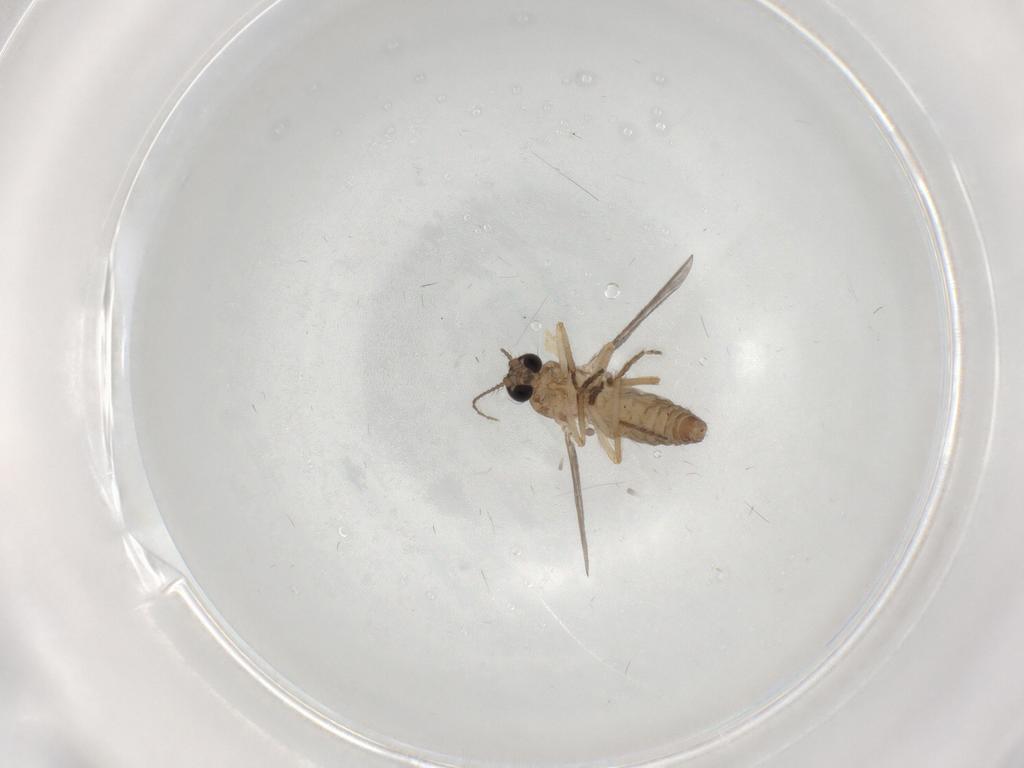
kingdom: Animalia
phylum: Arthropoda
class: Insecta
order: Diptera
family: Ceratopogonidae
